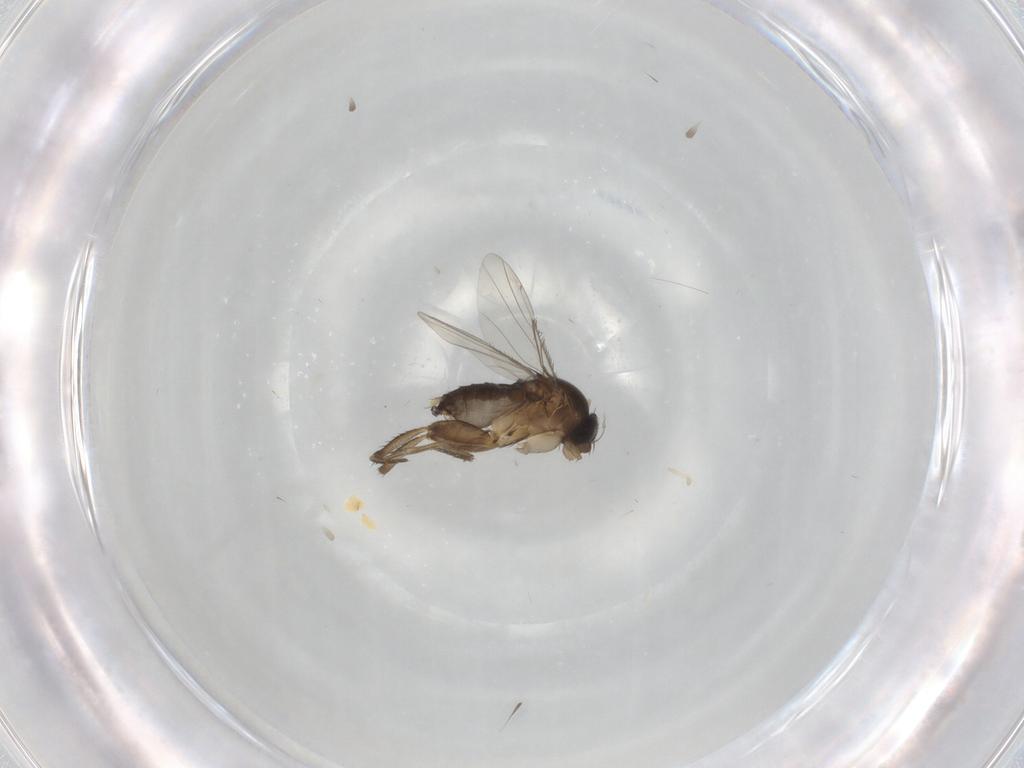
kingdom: Animalia
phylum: Arthropoda
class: Insecta
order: Diptera
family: Phoridae
